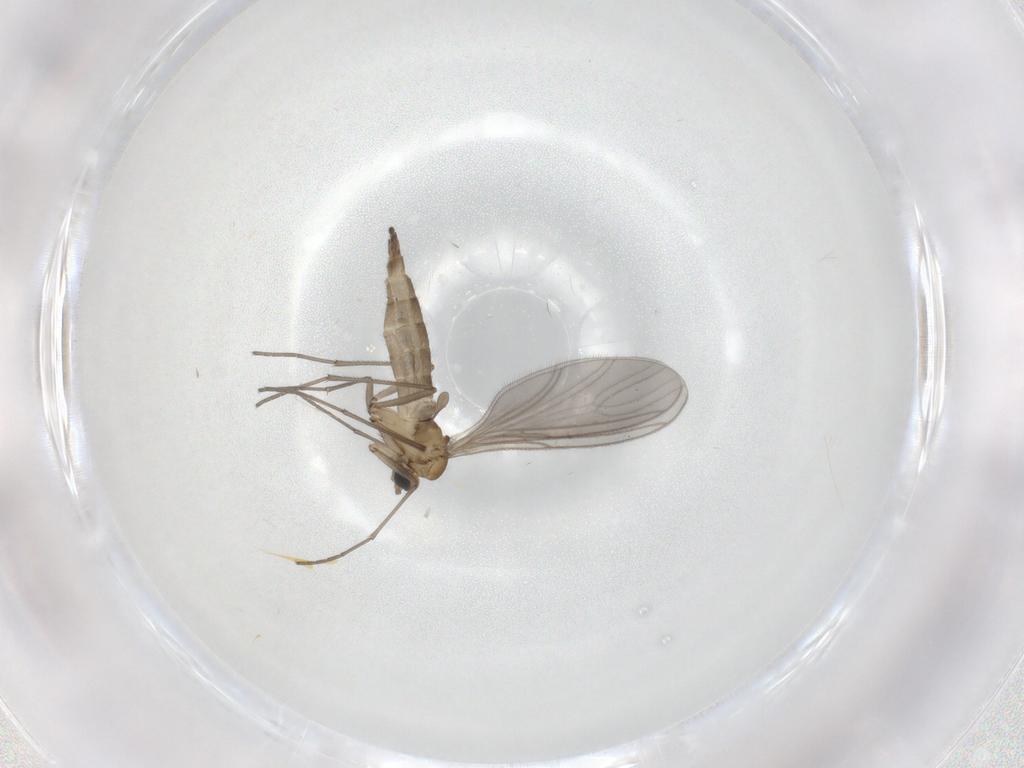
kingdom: Animalia
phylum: Arthropoda
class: Insecta
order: Diptera
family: Sciaridae
